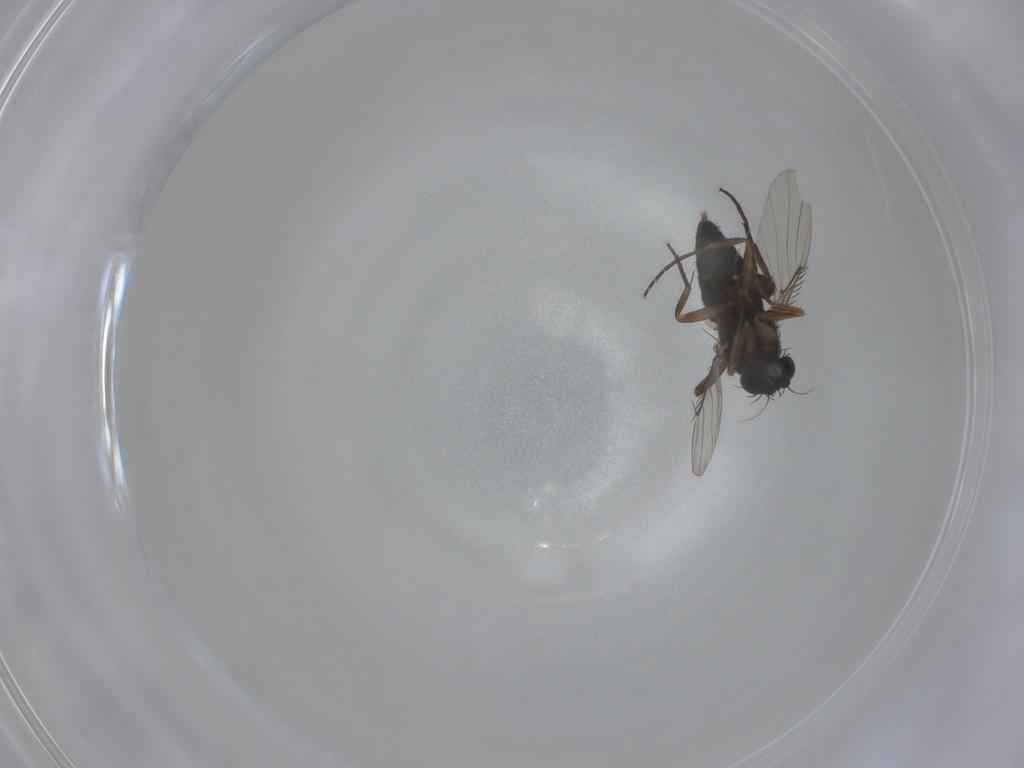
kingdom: Animalia
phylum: Arthropoda
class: Insecta
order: Diptera
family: Phoridae
